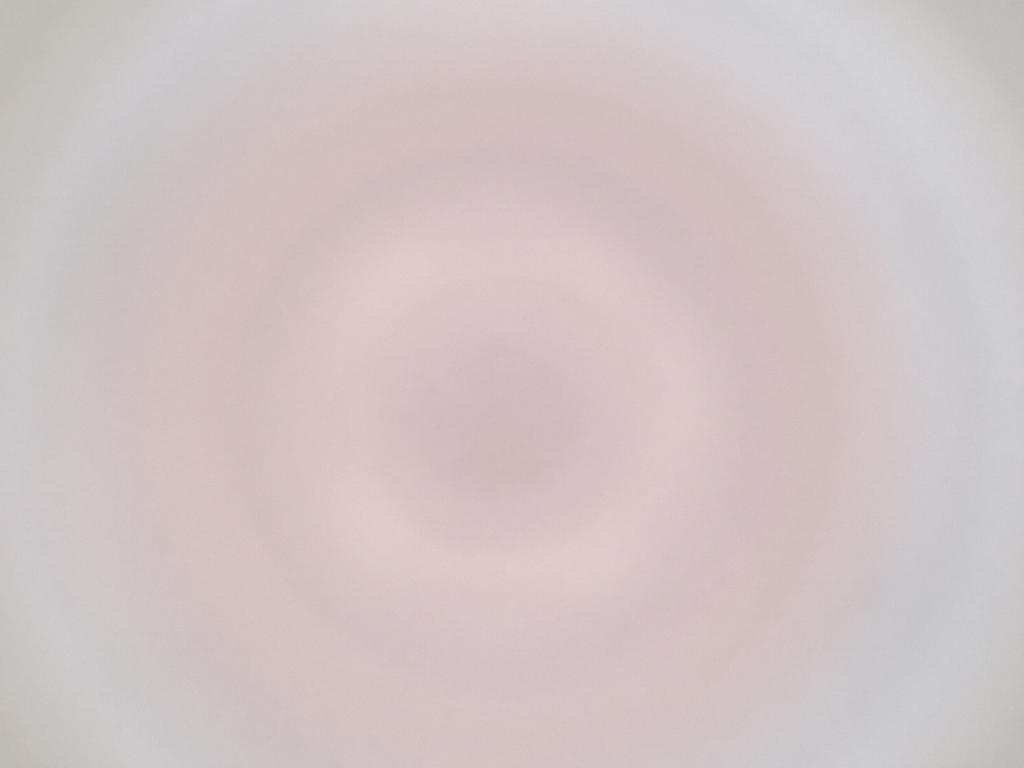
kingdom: Animalia
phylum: Arthropoda
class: Insecta
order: Diptera
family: Cecidomyiidae
